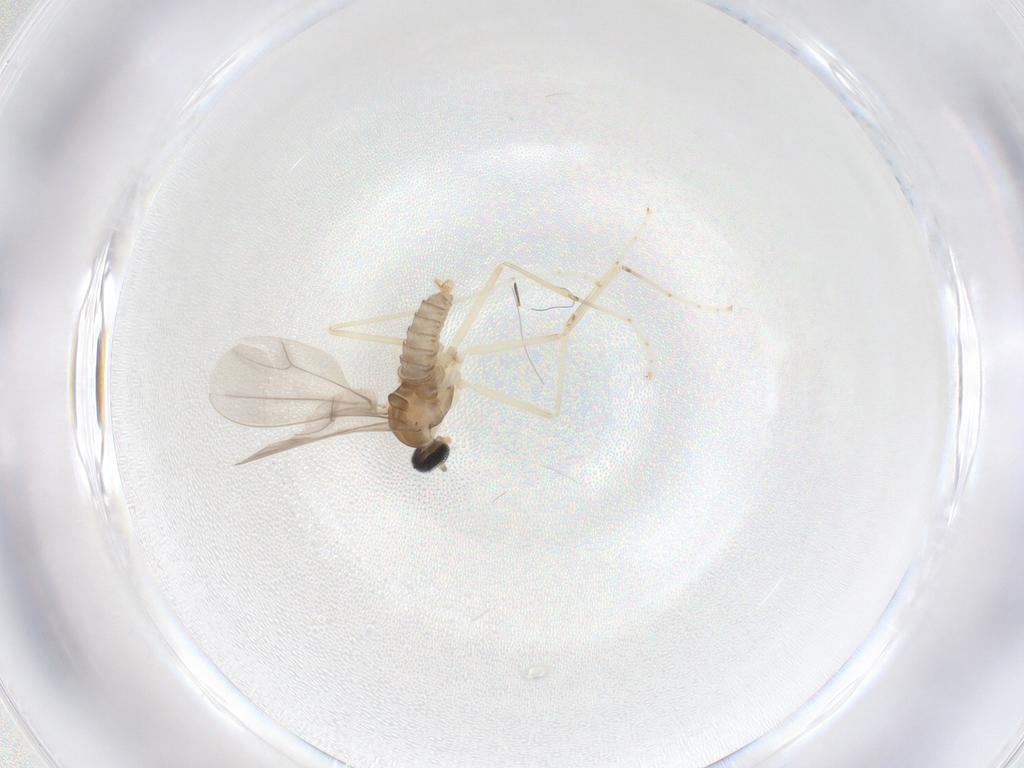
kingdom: Animalia
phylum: Arthropoda
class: Insecta
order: Diptera
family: Cecidomyiidae
